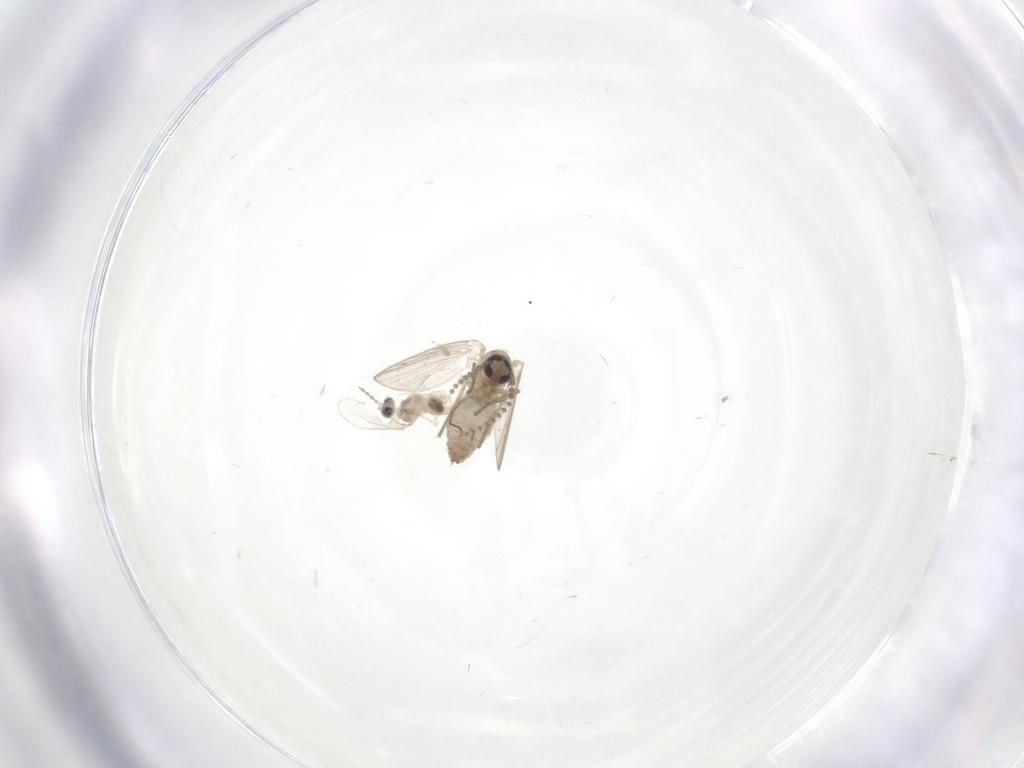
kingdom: Animalia
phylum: Arthropoda
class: Insecta
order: Diptera
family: Psychodidae
